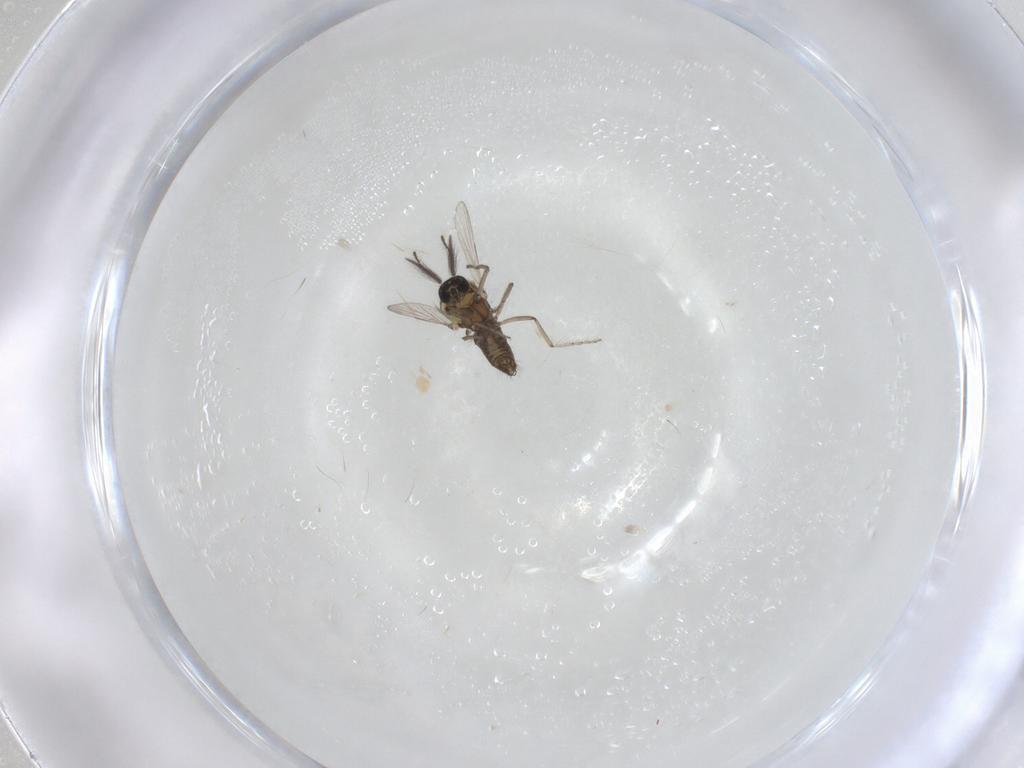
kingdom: Animalia
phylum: Arthropoda
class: Insecta
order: Diptera
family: Ceratopogonidae
